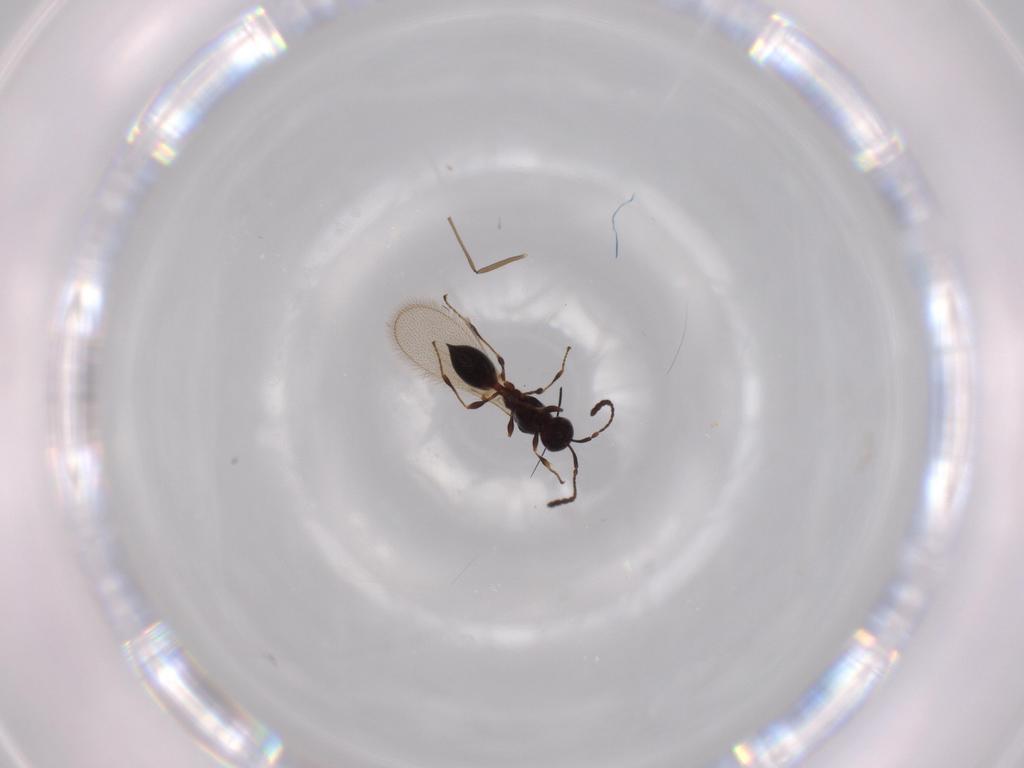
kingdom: Animalia
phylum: Arthropoda
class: Insecta
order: Hymenoptera
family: Diapriidae
